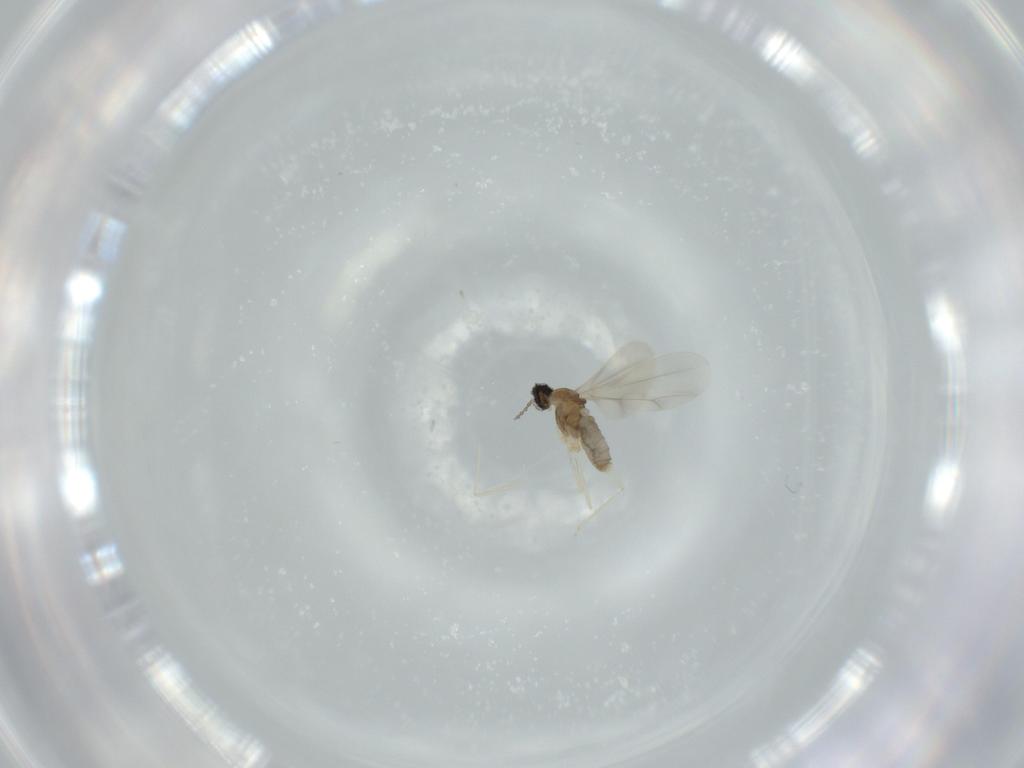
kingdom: Animalia
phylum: Arthropoda
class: Insecta
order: Diptera
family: Cecidomyiidae
